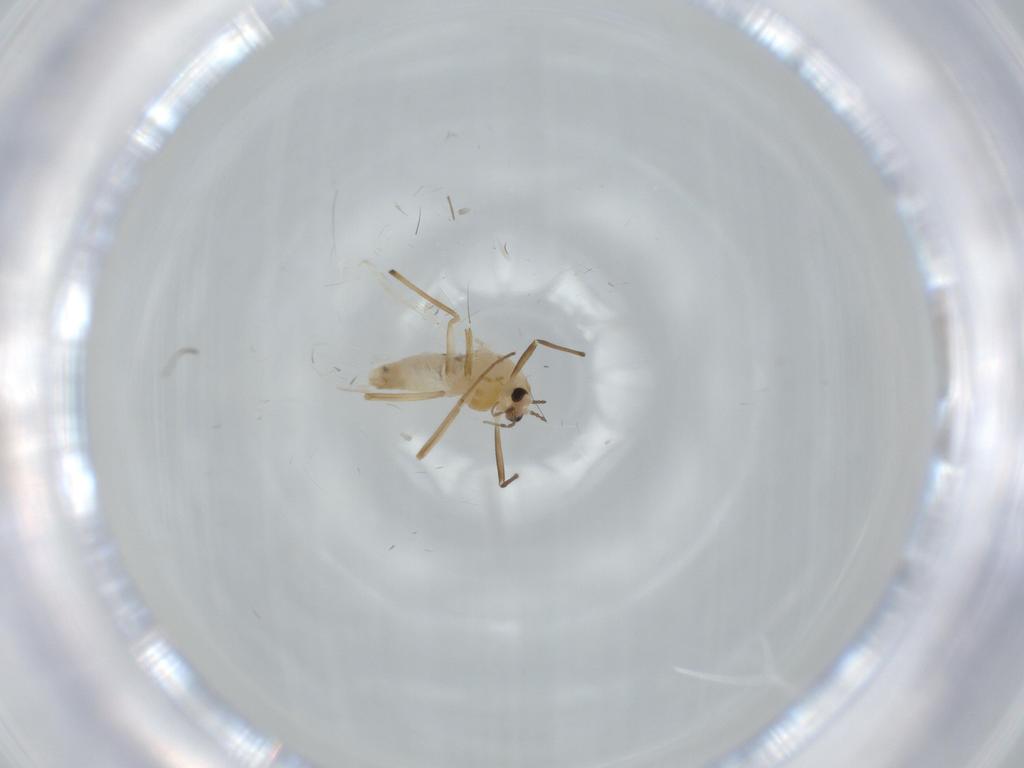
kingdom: Animalia
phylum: Arthropoda
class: Insecta
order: Diptera
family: Chironomidae
